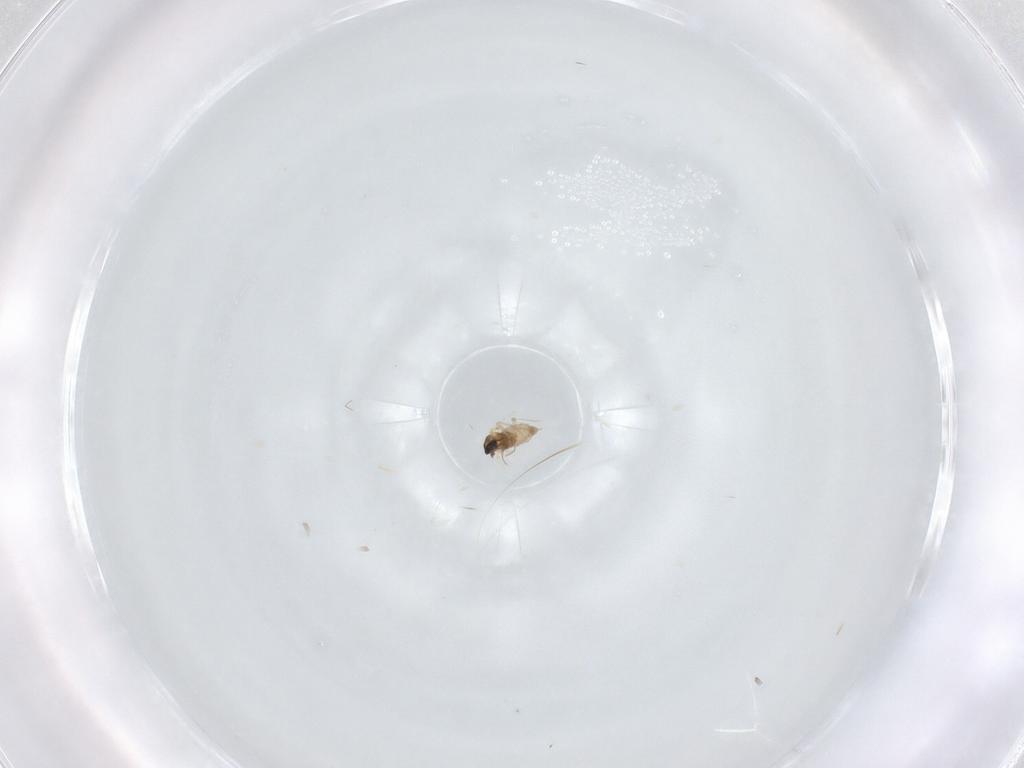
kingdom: Animalia
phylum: Arthropoda
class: Insecta
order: Diptera
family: Cecidomyiidae
